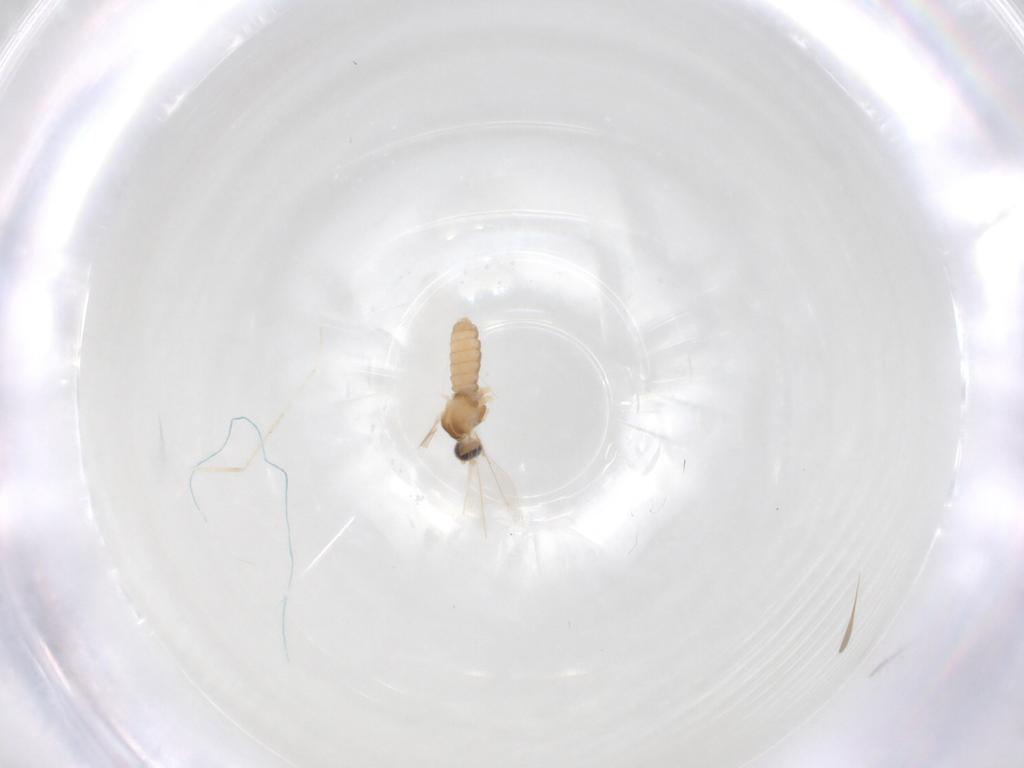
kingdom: Animalia
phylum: Arthropoda
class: Insecta
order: Diptera
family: Cecidomyiidae
